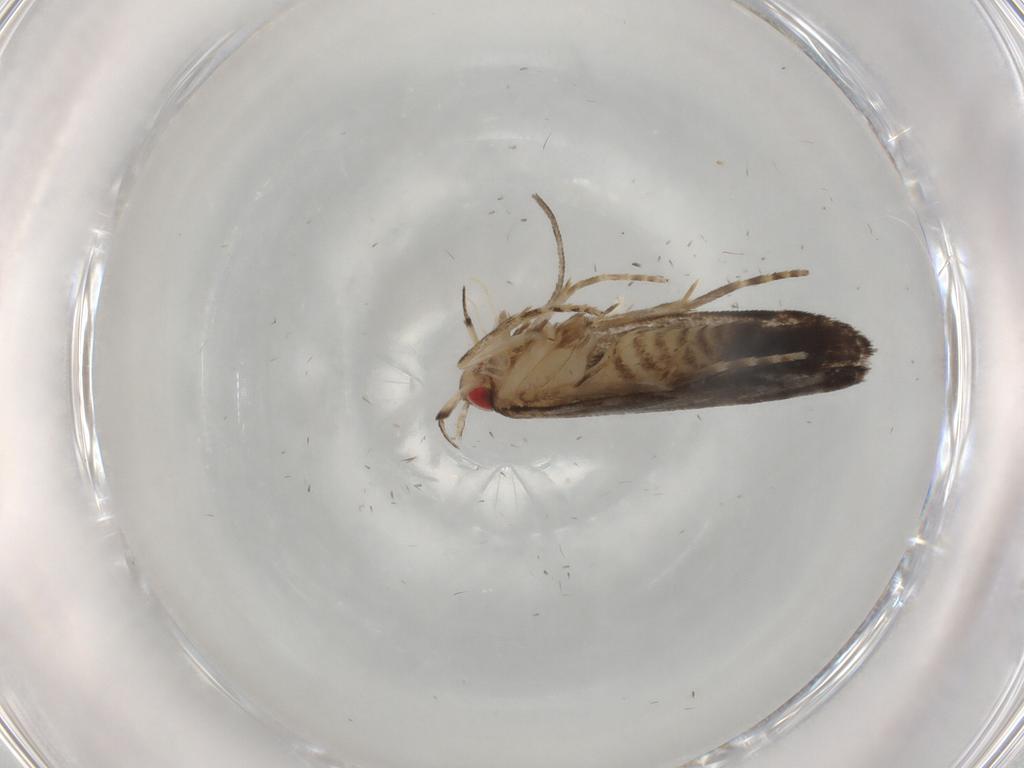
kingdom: Animalia
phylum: Arthropoda
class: Insecta
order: Lepidoptera
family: Gelechiidae
